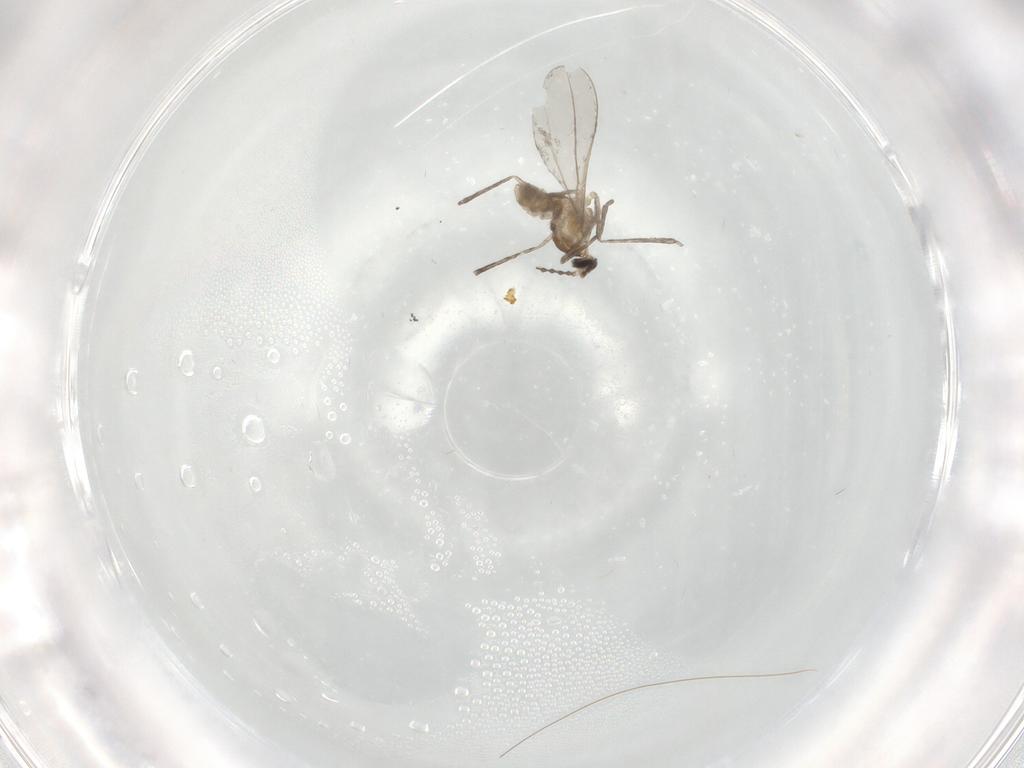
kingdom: Animalia
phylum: Arthropoda
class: Insecta
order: Diptera
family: Cecidomyiidae
